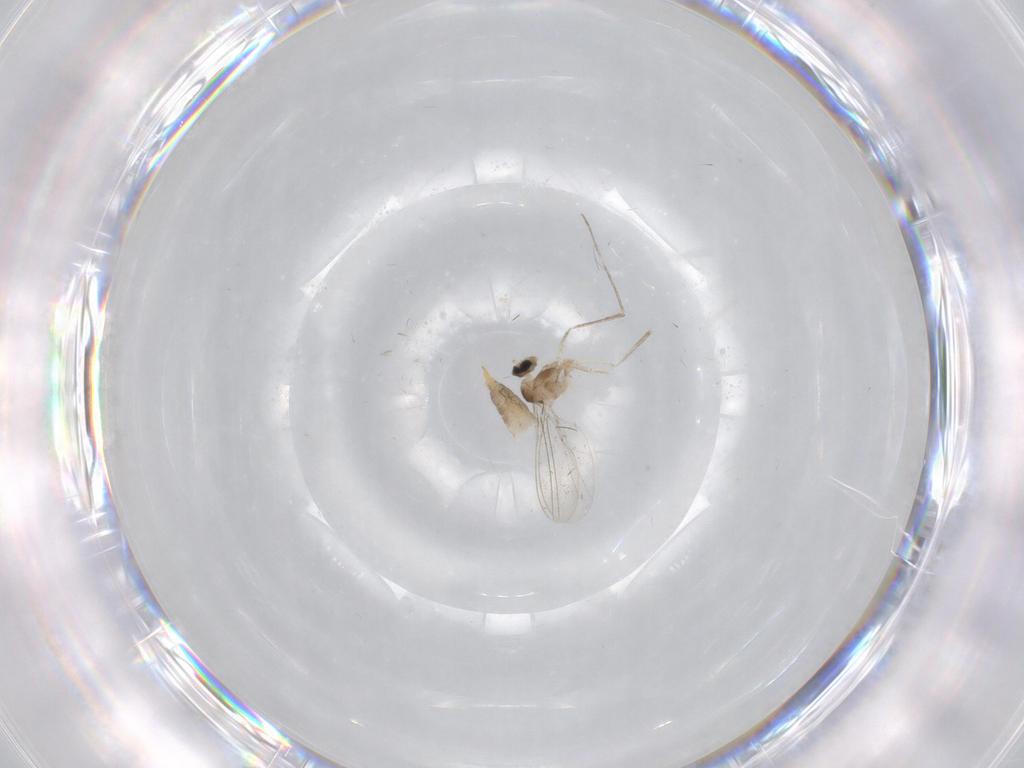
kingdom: Animalia
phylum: Arthropoda
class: Insecta
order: Diptera
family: Cecidomyiidae
